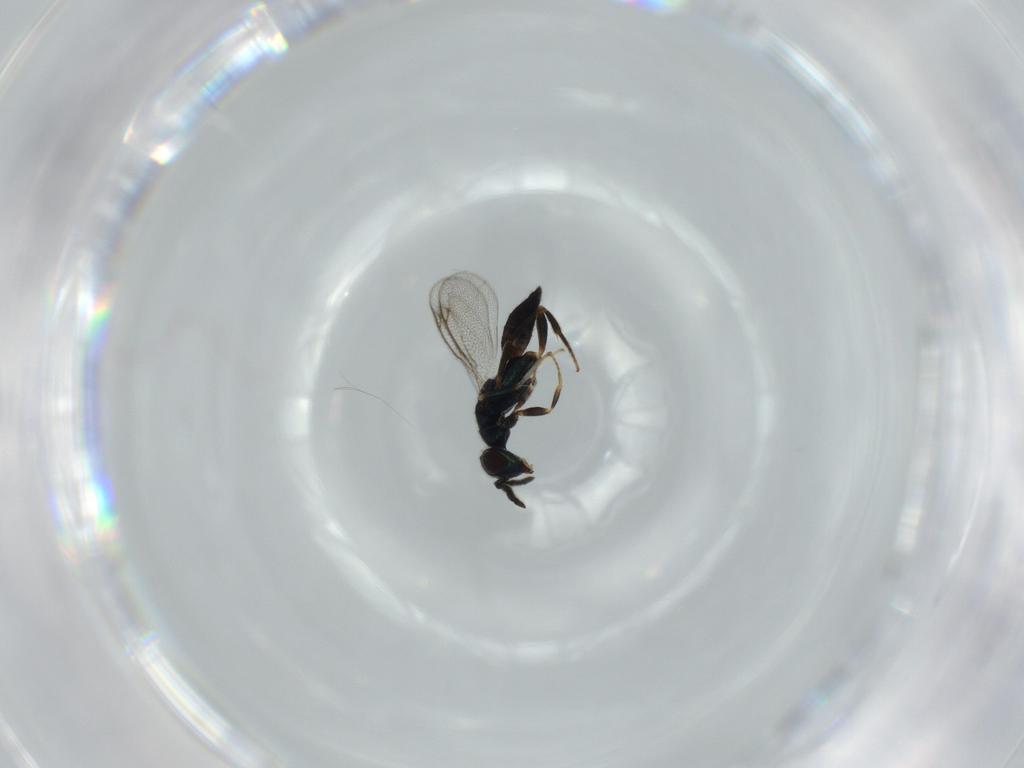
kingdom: Animalia
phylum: Arthropoda
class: Insecta
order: Hymenoptera
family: Cleonyminae
